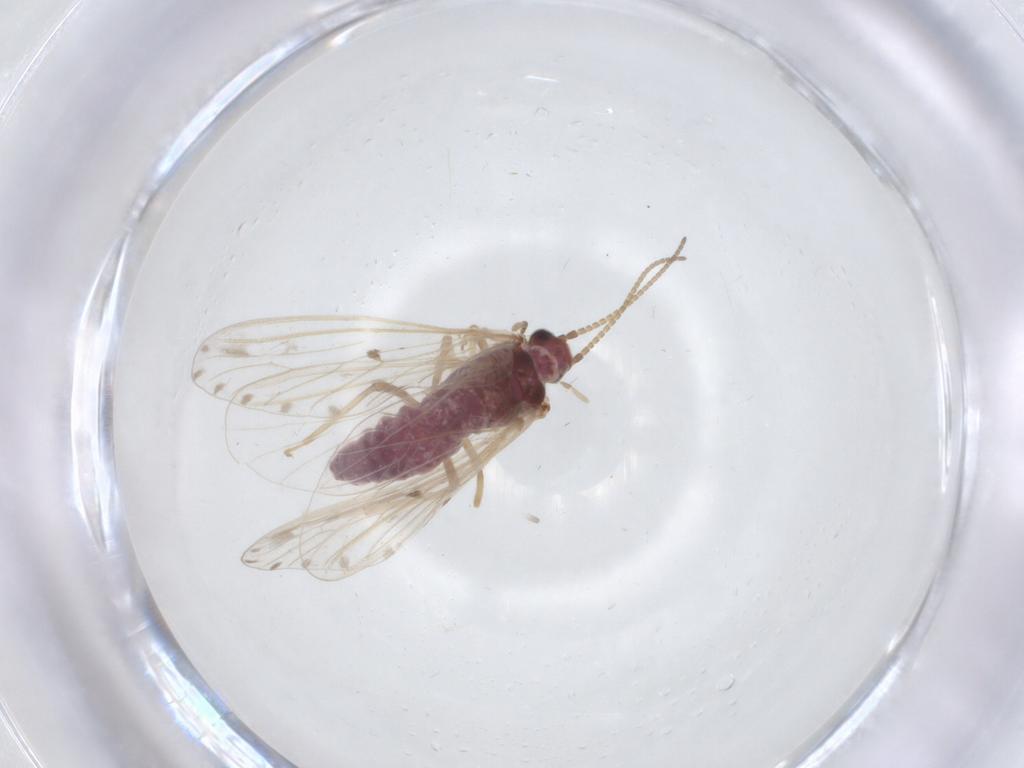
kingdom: Animalia
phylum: Arthropoda
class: Insecta
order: Neuroptera
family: Coniopterygidae
